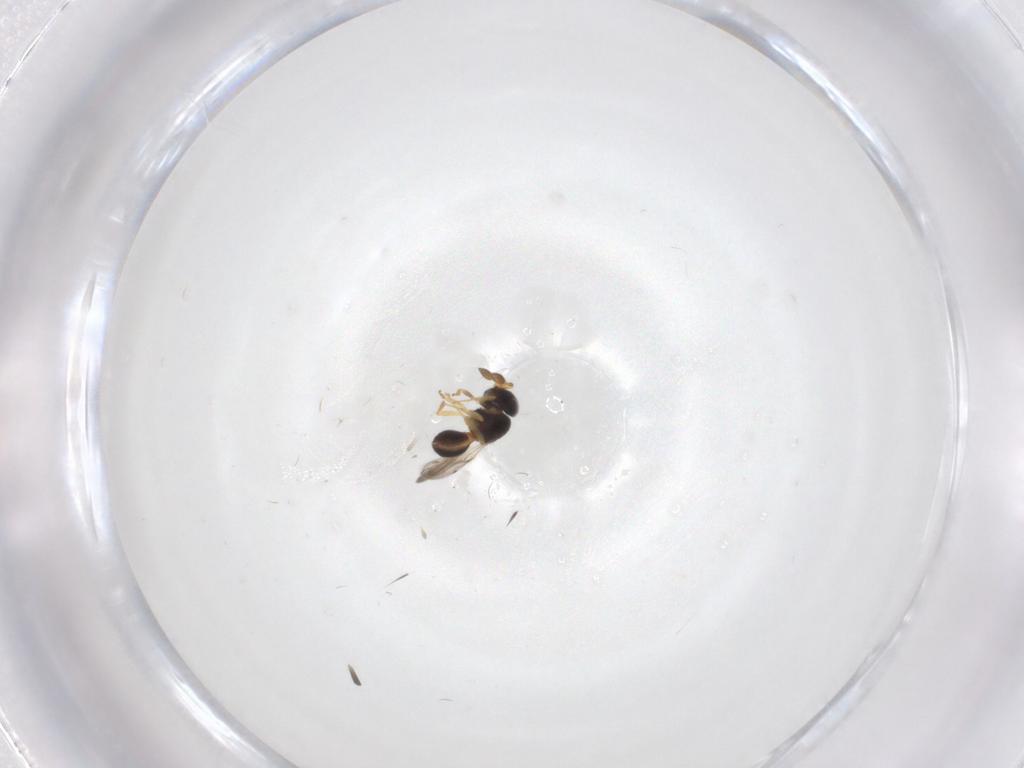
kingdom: Animalia
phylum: Arthropoda
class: Insecta
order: Hymenoptera
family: Scelionidae
